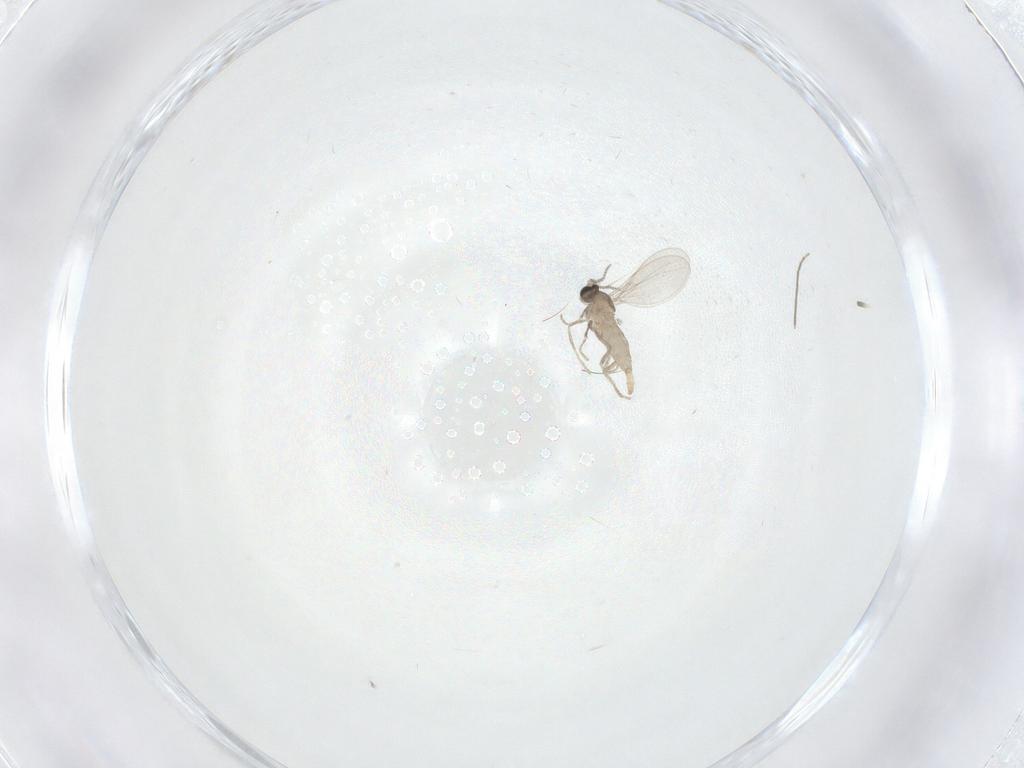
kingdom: Animalia
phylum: Arthropoda
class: Insecta
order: Diptera
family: Cecidomyiidae
